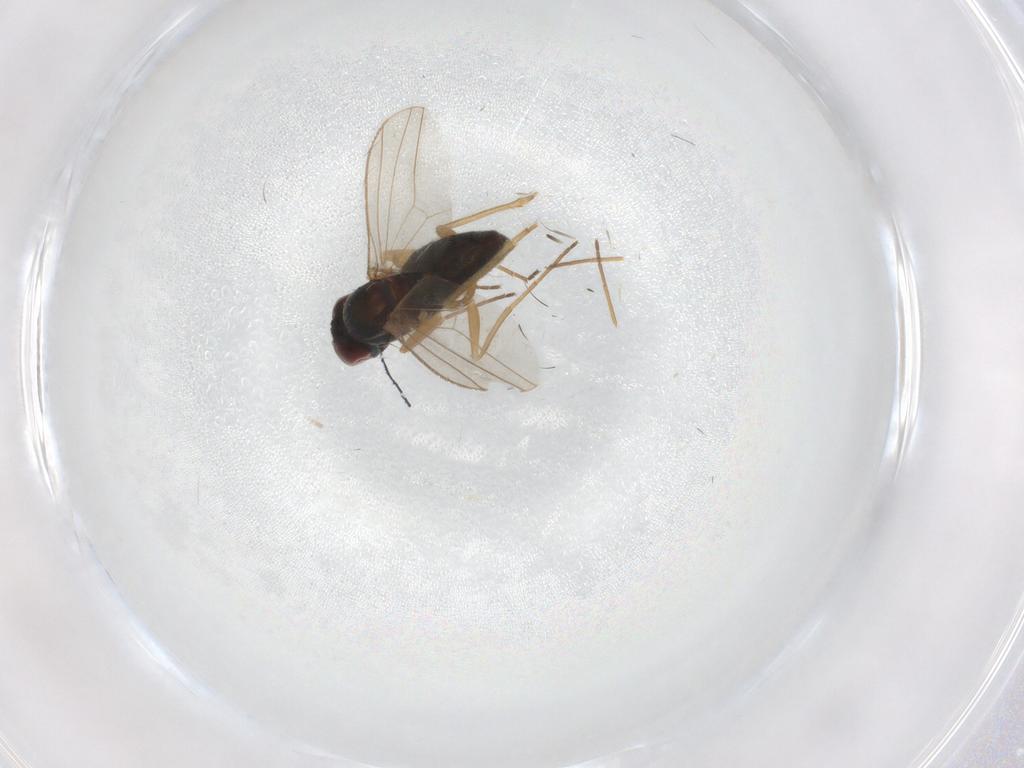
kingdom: Animalia
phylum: Arthropoda
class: Insecta
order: Diptera
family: Dolichopodidae
